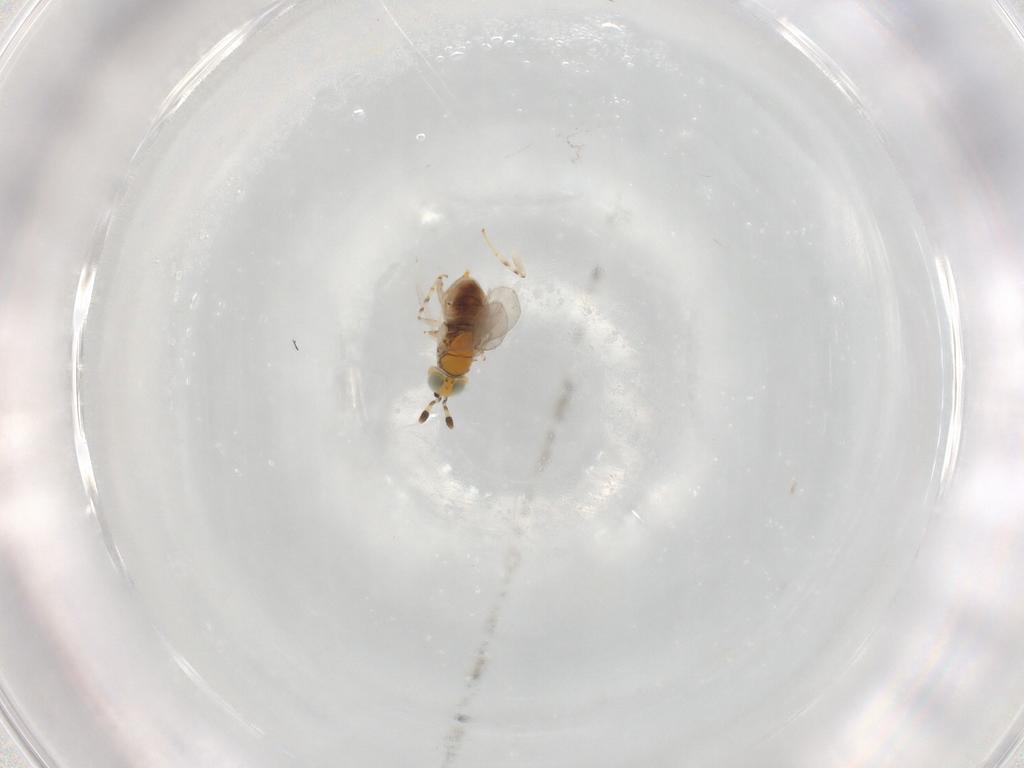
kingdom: Animalia
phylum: Arthropoda
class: Insecta
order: Hymenoptera
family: Encyrtidae
